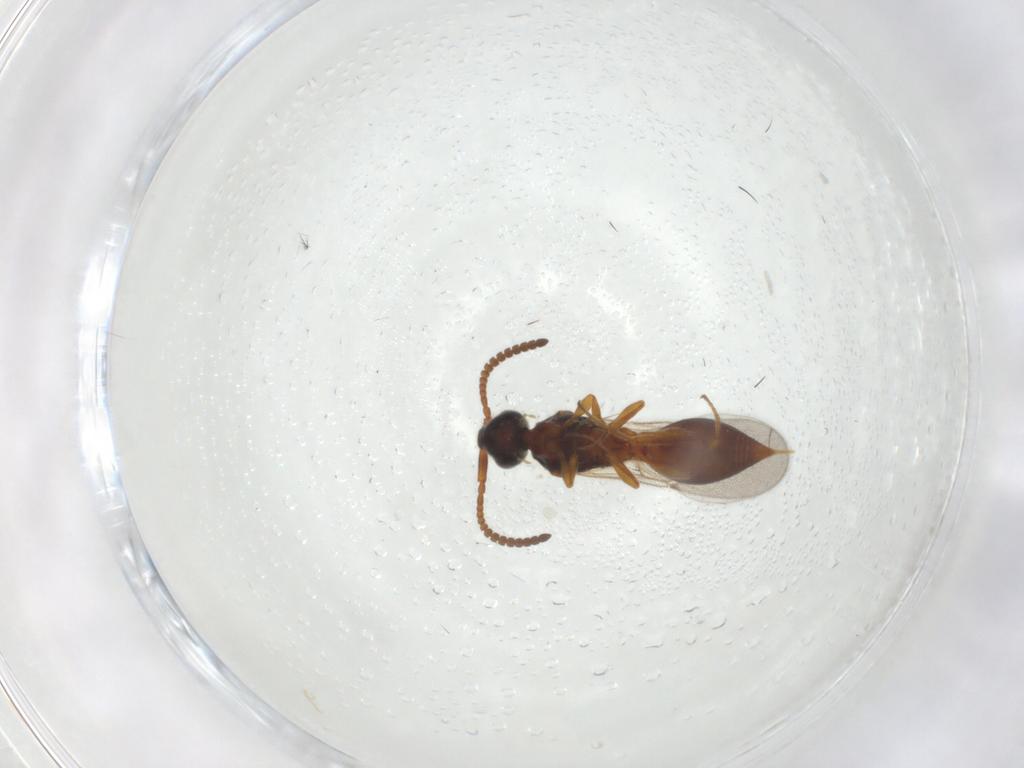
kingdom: Animalia
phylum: Arthropoda
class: Insecta
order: Hymenoptera
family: Diapriidae
